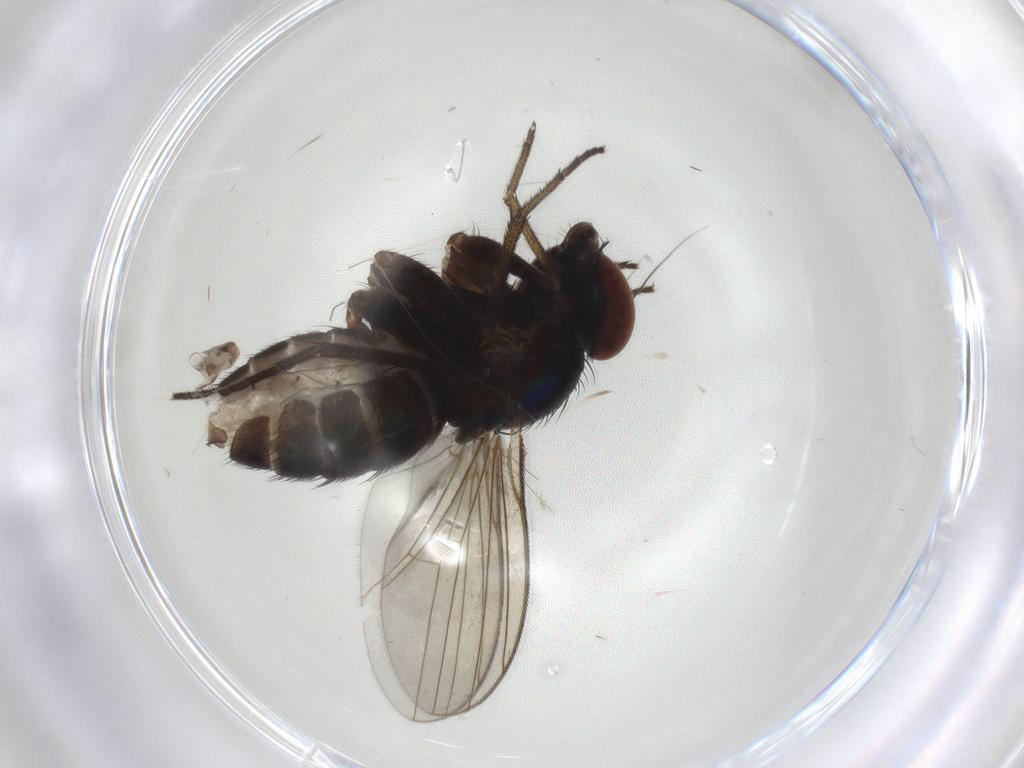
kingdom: Animalia
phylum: Arthropoda
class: Insecta
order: Diptera
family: Dolichopodidae
